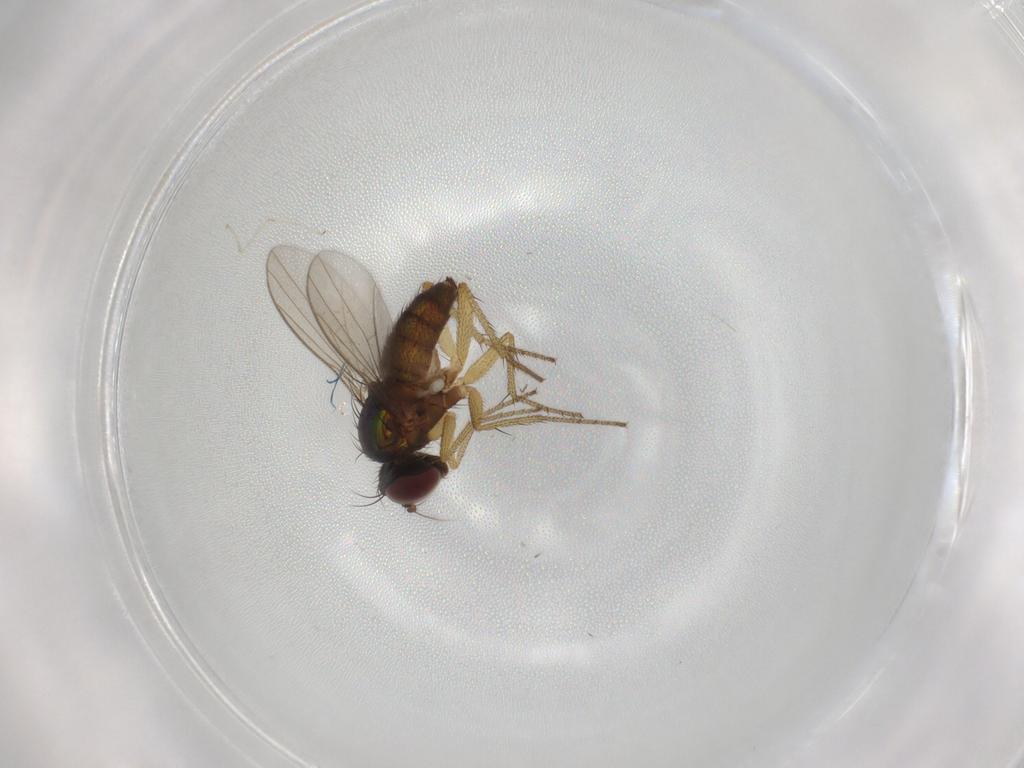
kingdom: Animalia
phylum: Arthropoda
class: Insecta
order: Diptera
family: Dolichopodidae
